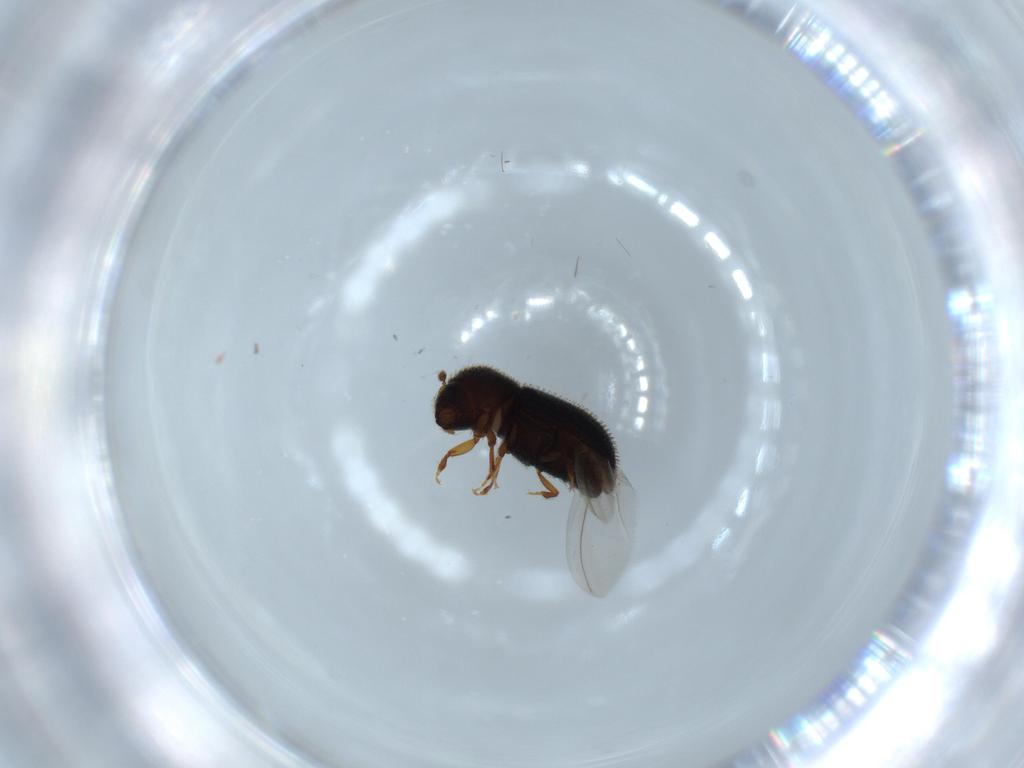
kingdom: Animalia
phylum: Arthropoda
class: Insecta
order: Coleoptera
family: Curculionidae
